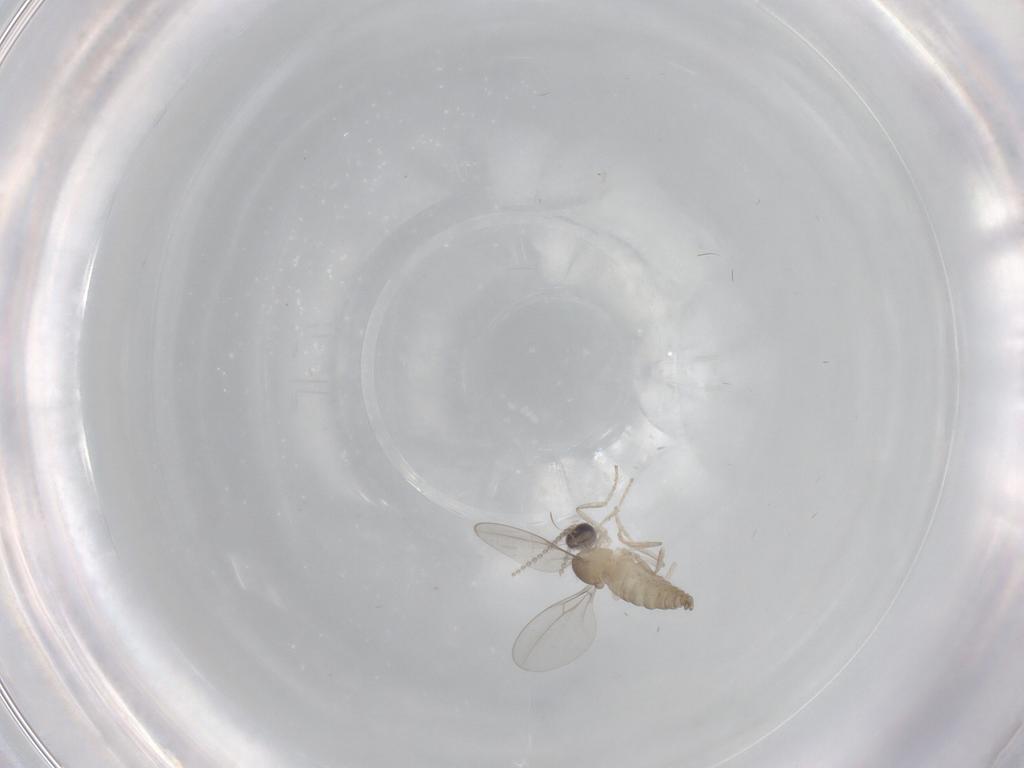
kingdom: Animalia
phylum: Arthropoda
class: Insecta
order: Diptera
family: Cecidomyiidae
